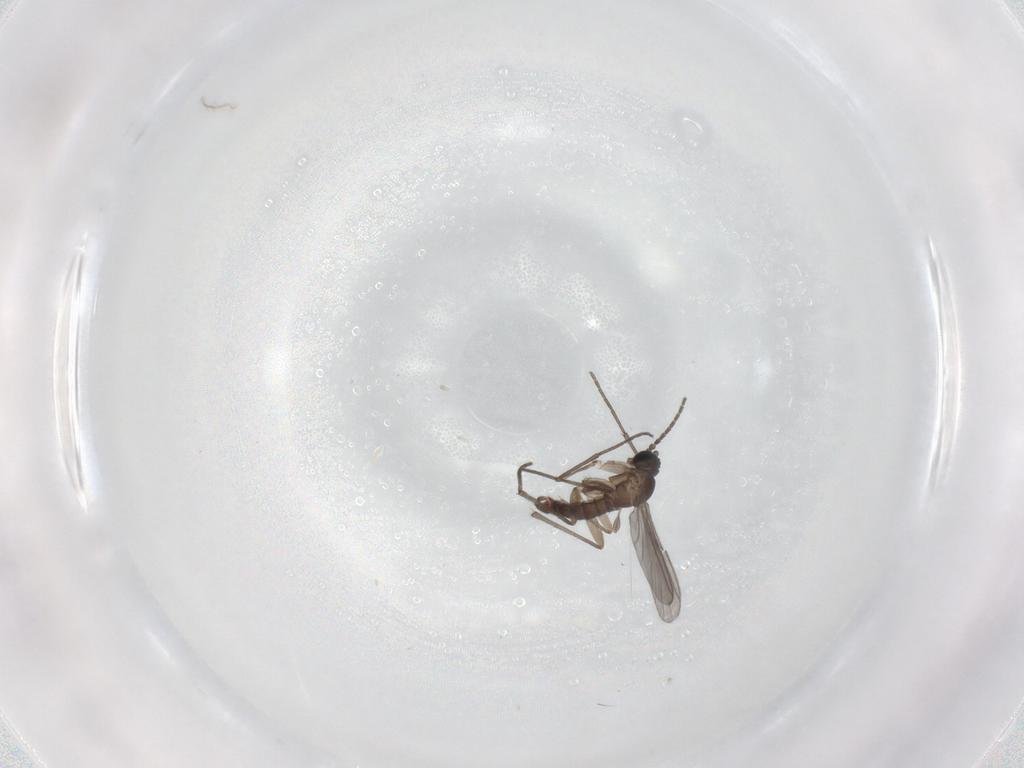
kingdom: Animalia
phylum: Arthropoda
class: Insecta
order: Diptera
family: Sciaridae
